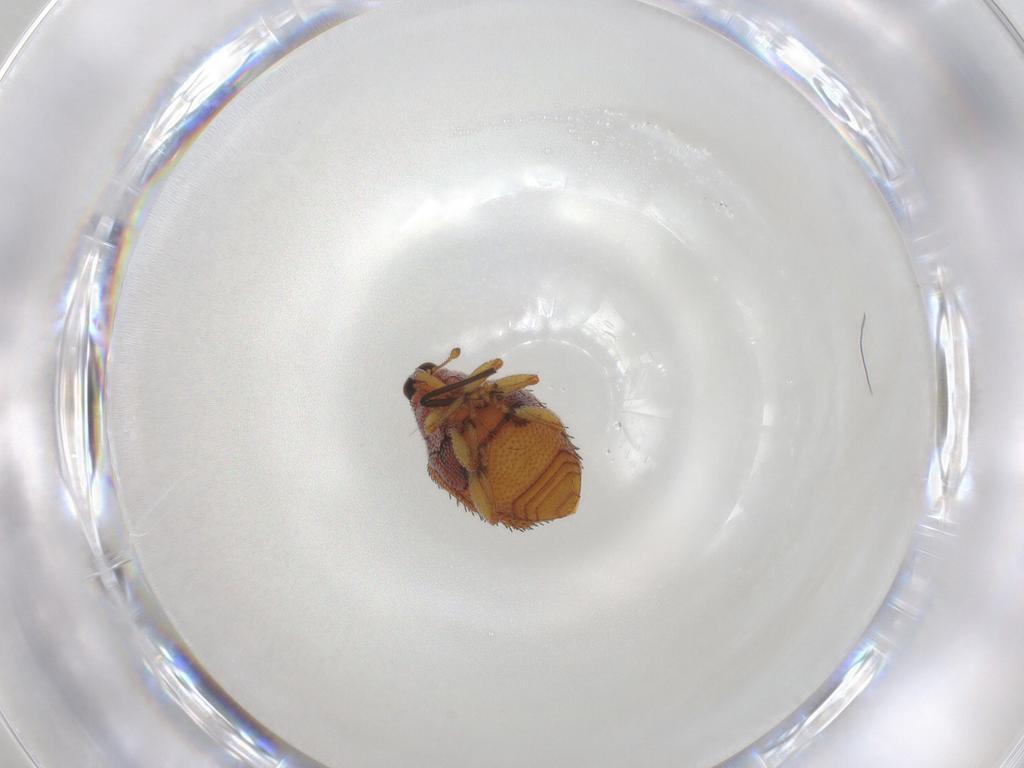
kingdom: Animalia
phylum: Arthropoda
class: Insecta
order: Coleoptera
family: Curculionidae
